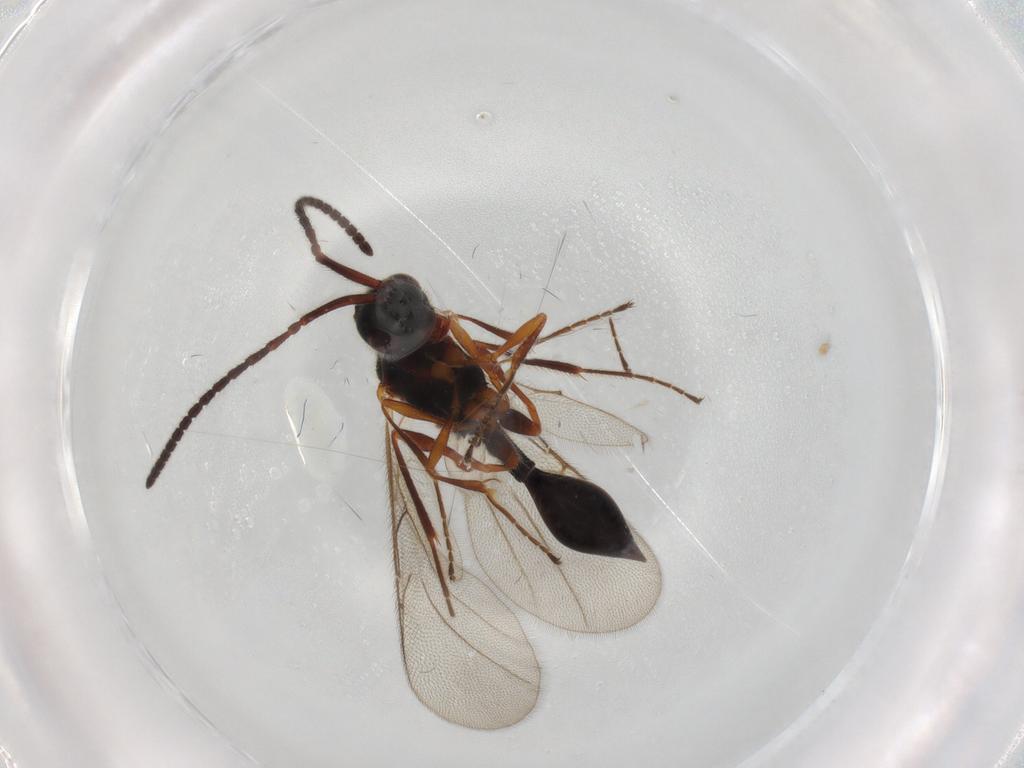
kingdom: Animalia
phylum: Arthropoda
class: Insecta
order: Hymenoptera
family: Diapriidae
